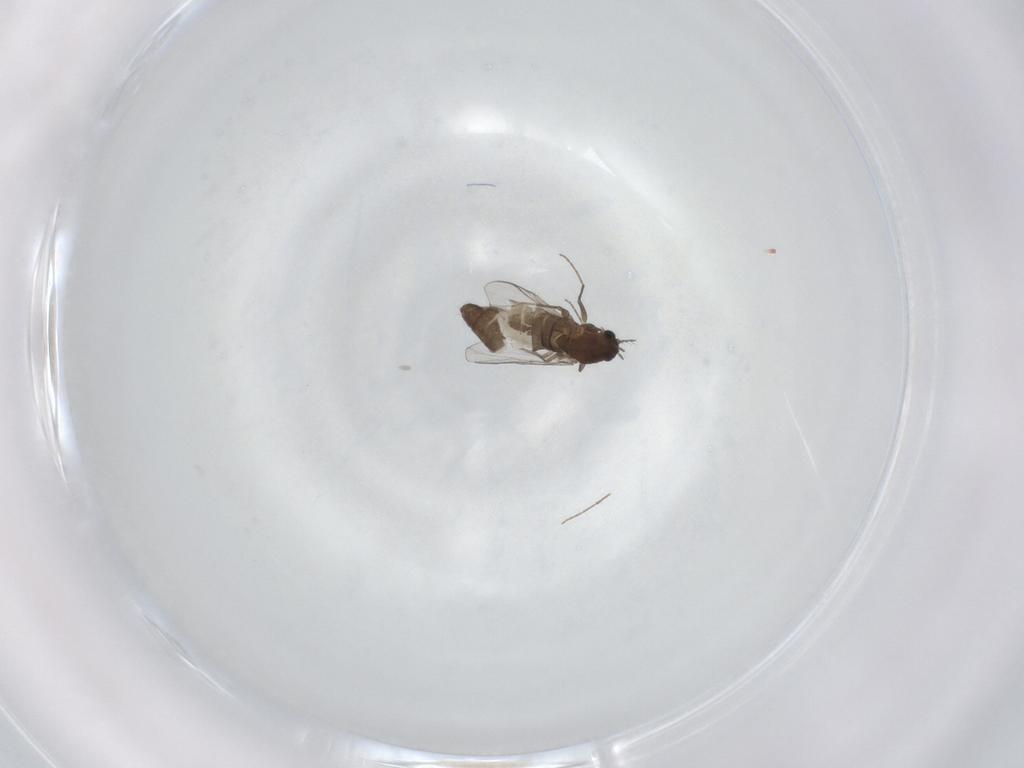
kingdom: Animalia
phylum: Arthropoda
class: Insecta
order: Diptera
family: Chironomidae
